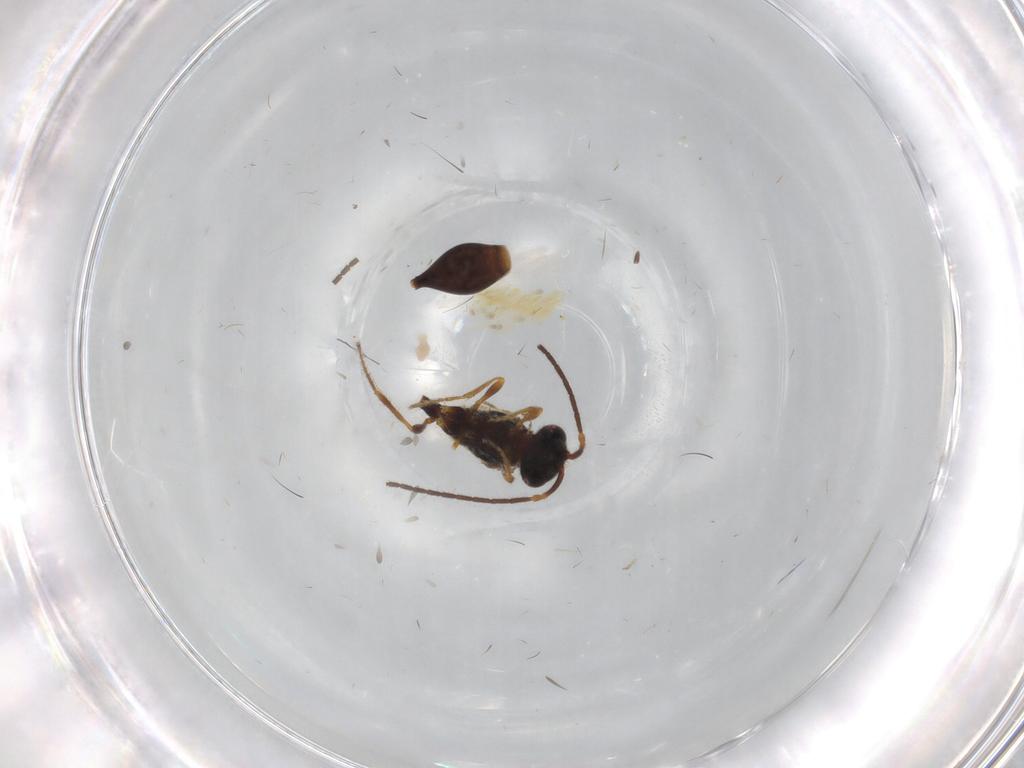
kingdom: Animalia
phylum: Arthropoda
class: Insecta
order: Hymenoptera
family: Diapriidae
